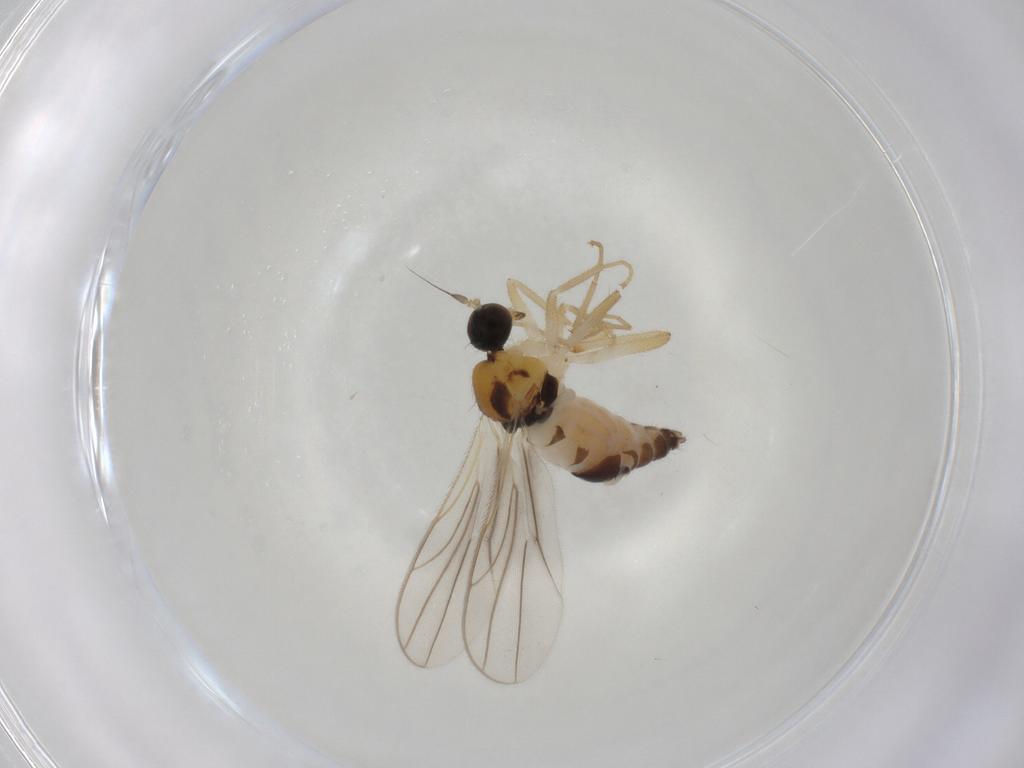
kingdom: Animalia
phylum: Arthropoda
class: Insecta
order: Diptera
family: Hybotidae
